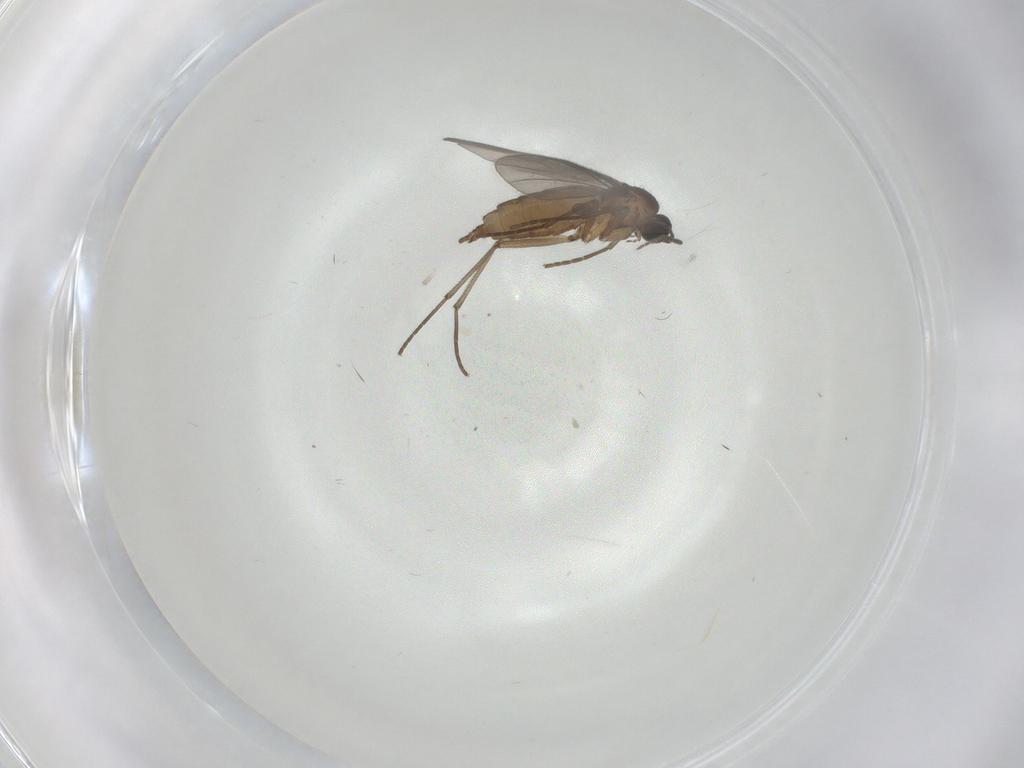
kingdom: Animalia
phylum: Arthropoda
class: Insecta
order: Diptera
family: Sciaridae
